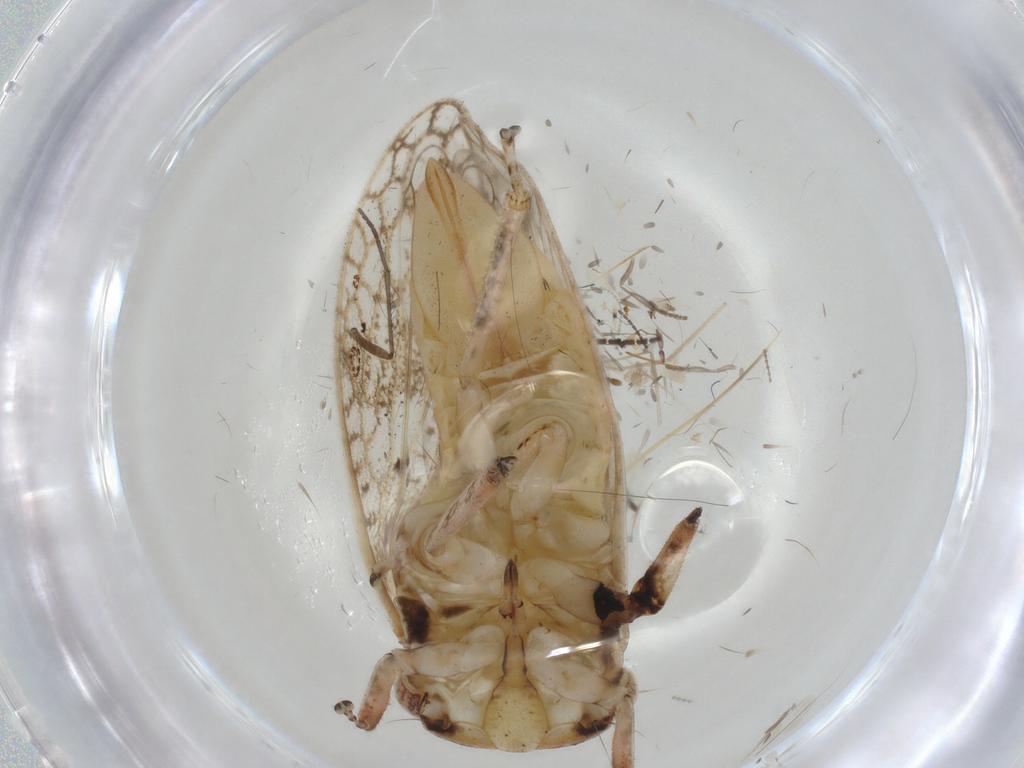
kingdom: Animalia
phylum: Arthropoda
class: Insecta
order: Hemiptera
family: Cicadellidae
